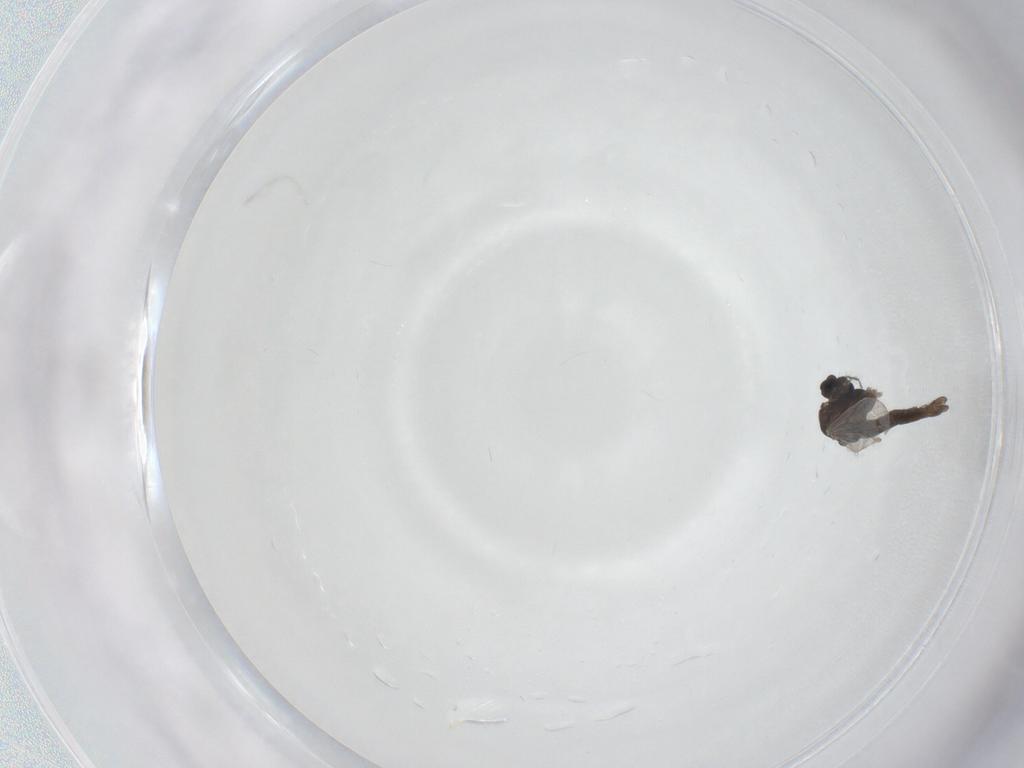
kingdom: Animalia
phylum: Arthropoda
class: Insecta
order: Diptera
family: Chironomidae
